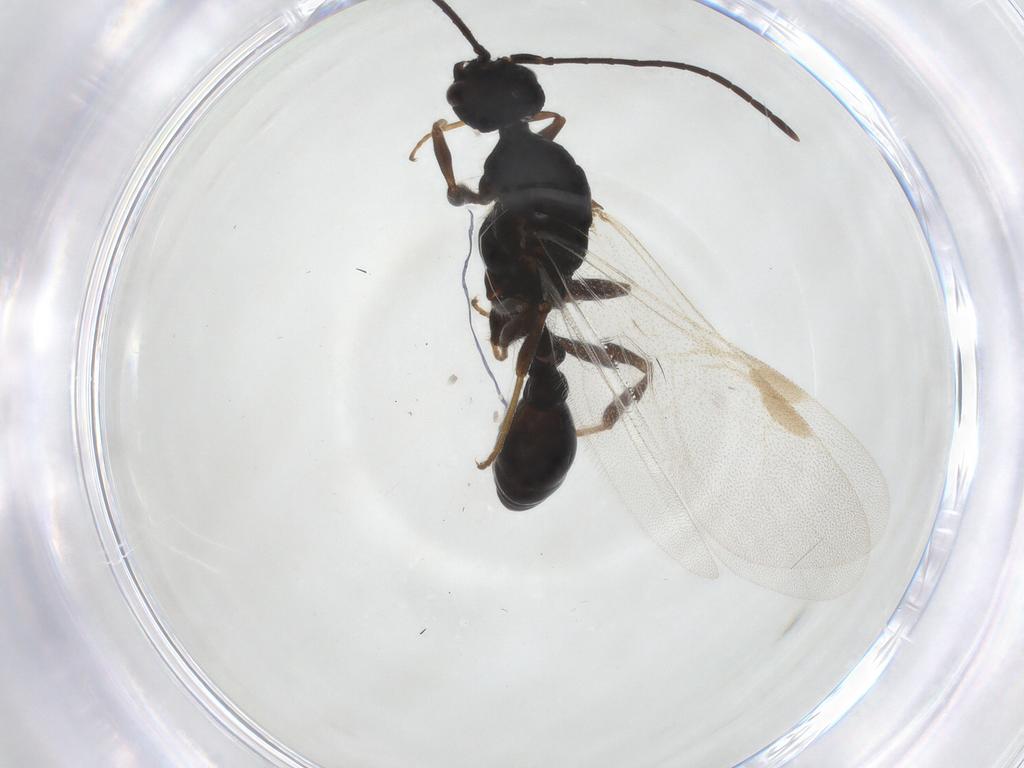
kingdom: Animalia
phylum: Arthropoda
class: Insecta
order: Hymenoptera
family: Formicidae
